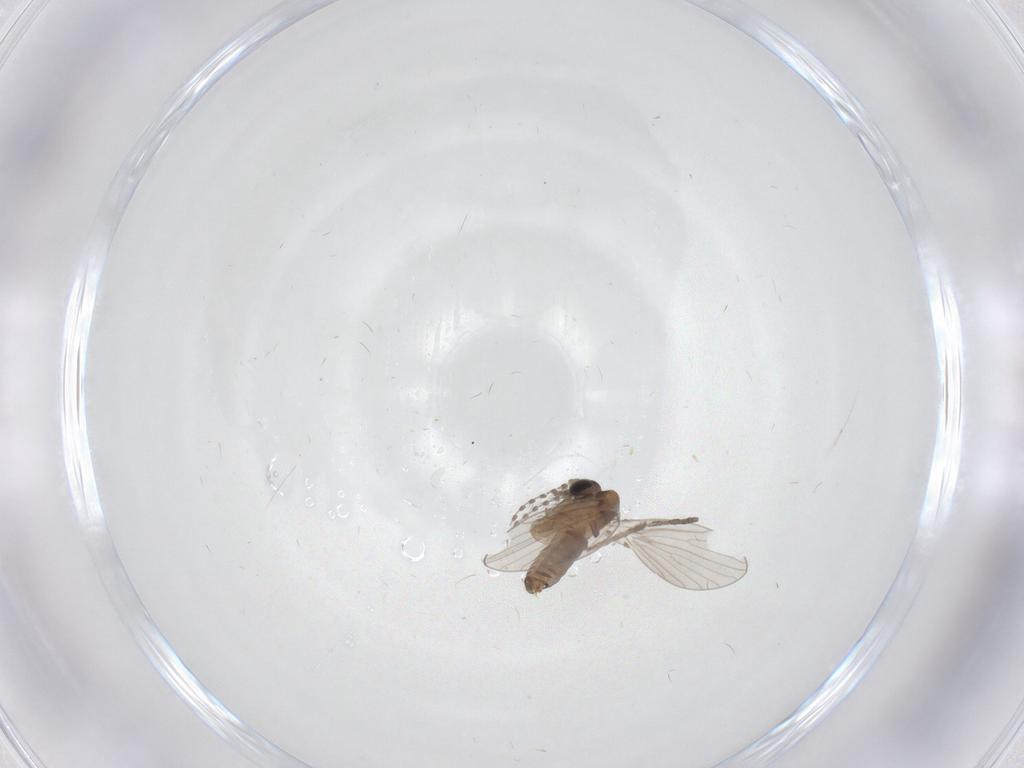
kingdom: Animalia
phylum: Arthropoda
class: Insecta
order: Diptera
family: Psychodidae
